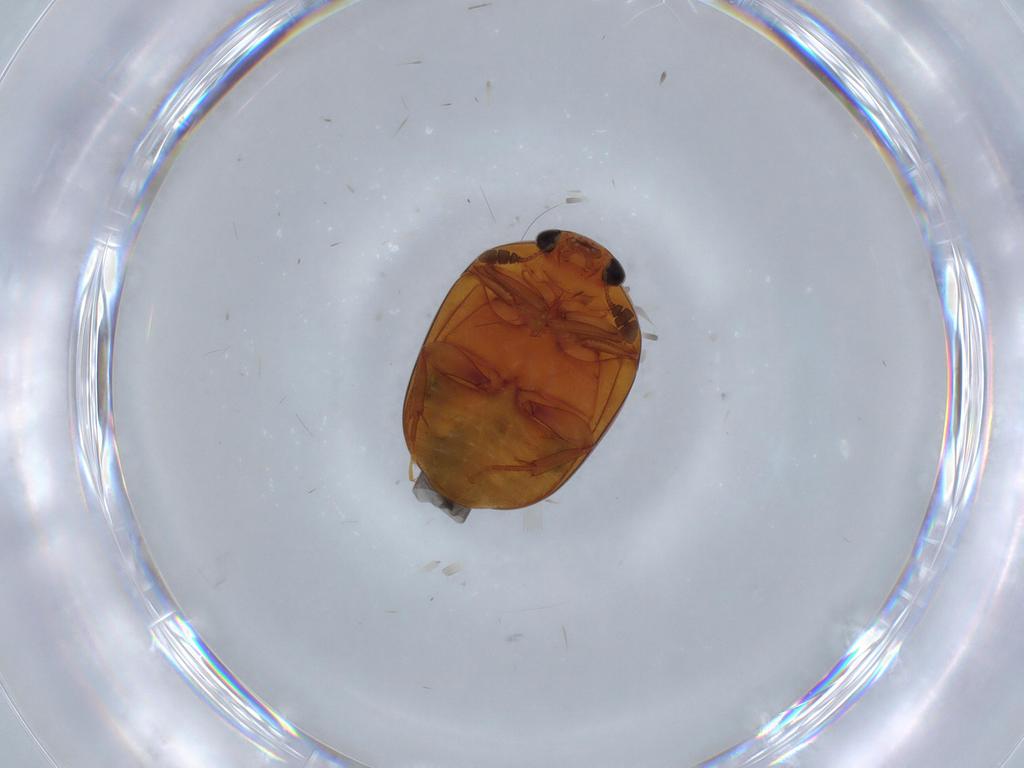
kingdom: Animalia
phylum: Arthropoda
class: Insecta
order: Coleoptera
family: Nitidulidae
